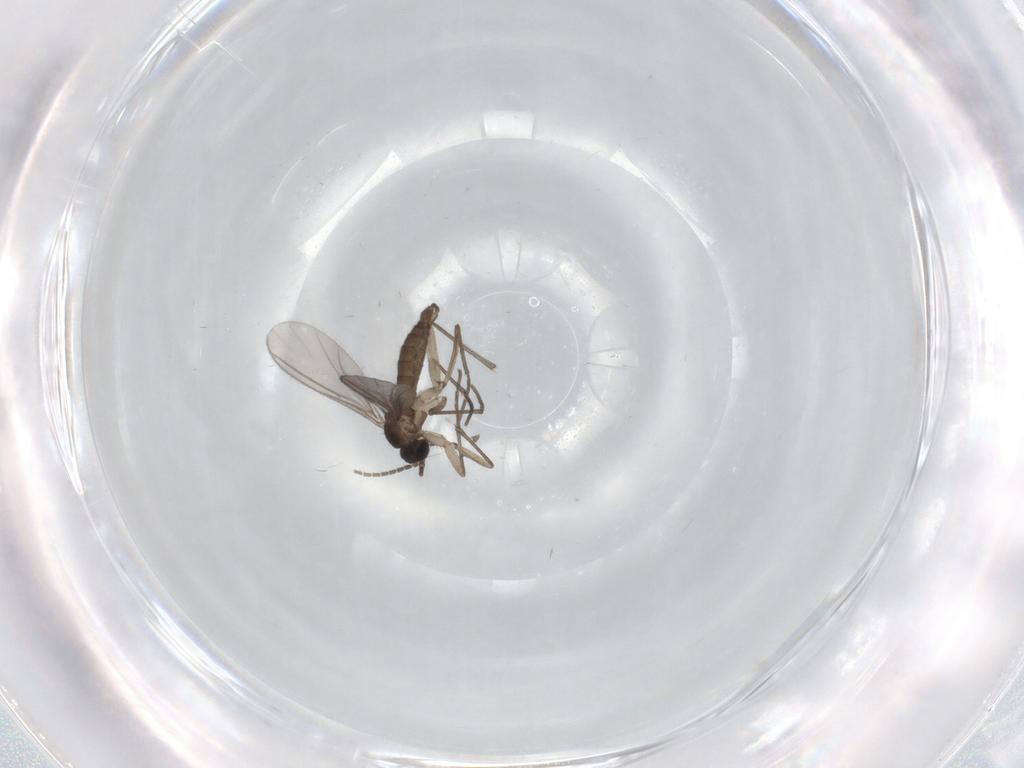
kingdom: Animalia
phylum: Arthropoda
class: Insecta
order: Diptera
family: Sciaridae
